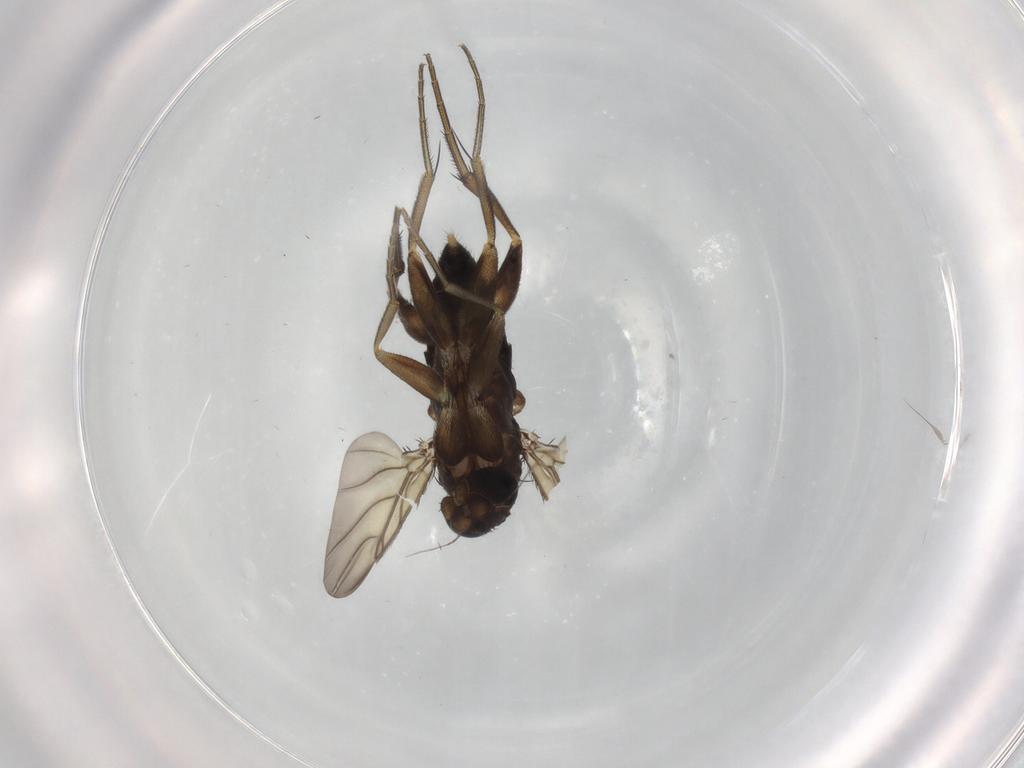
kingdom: Animalia
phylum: Arthropoda
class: Insecta
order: Diptera
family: Phoridae
